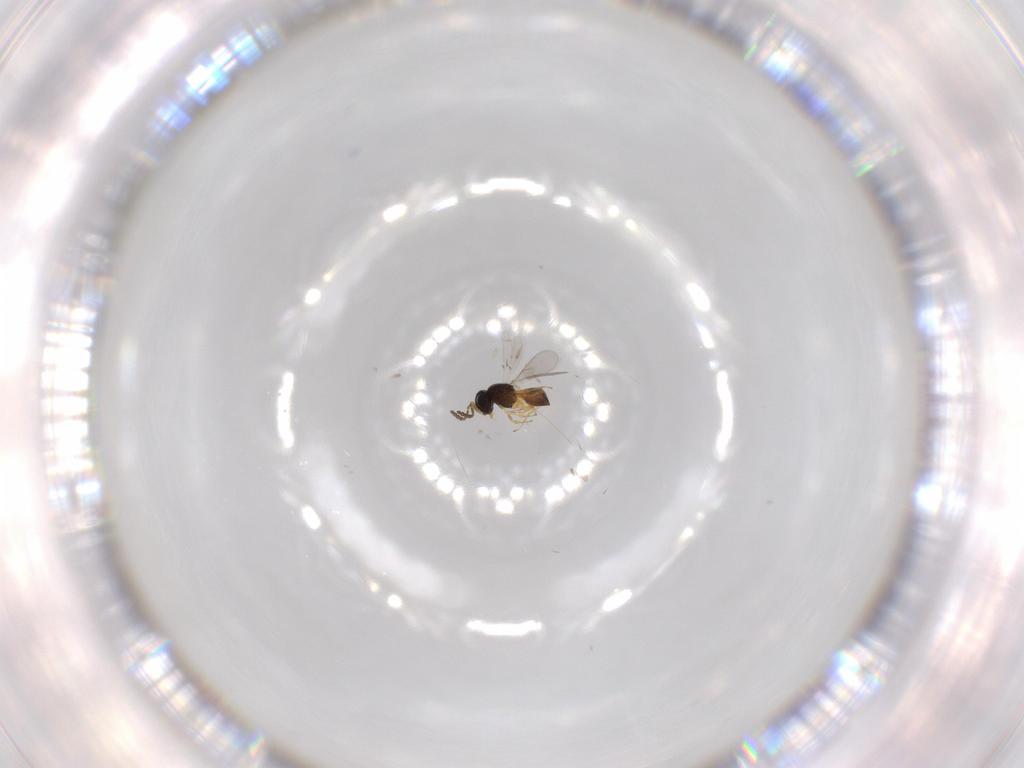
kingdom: Animalia
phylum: Arthropoda
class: Insecta
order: Hymenoptera
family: Scelionidae
